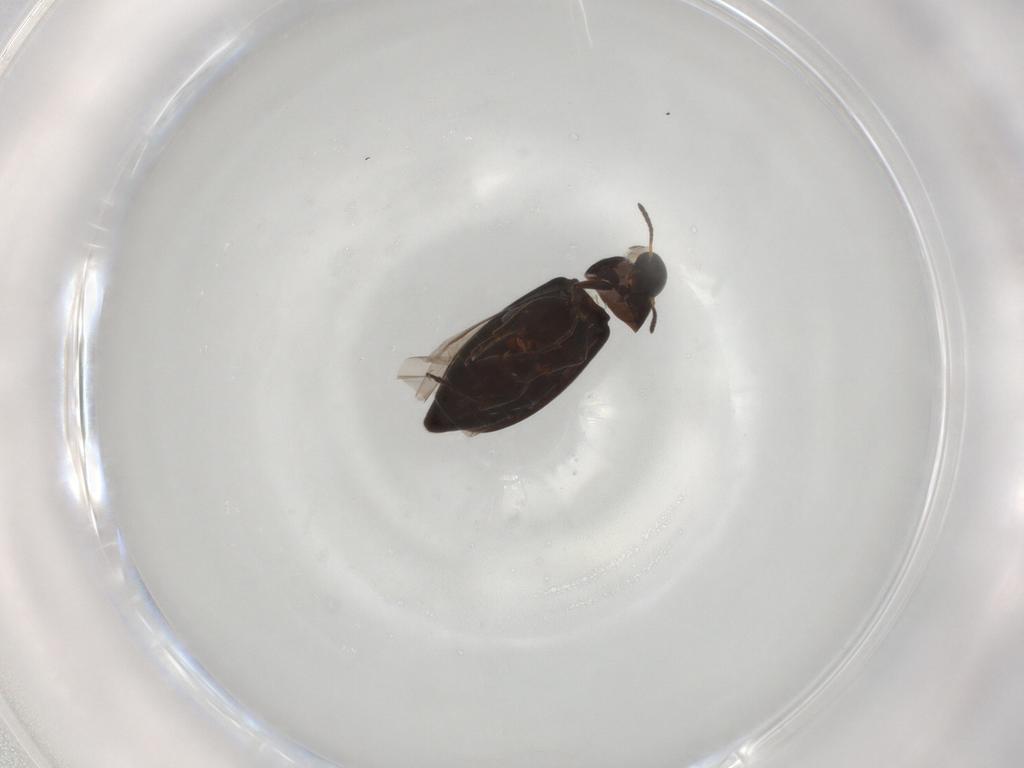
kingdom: Animalia
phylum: Arthropoda
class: Insecta
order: Coleoptera
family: Scraptiidae
